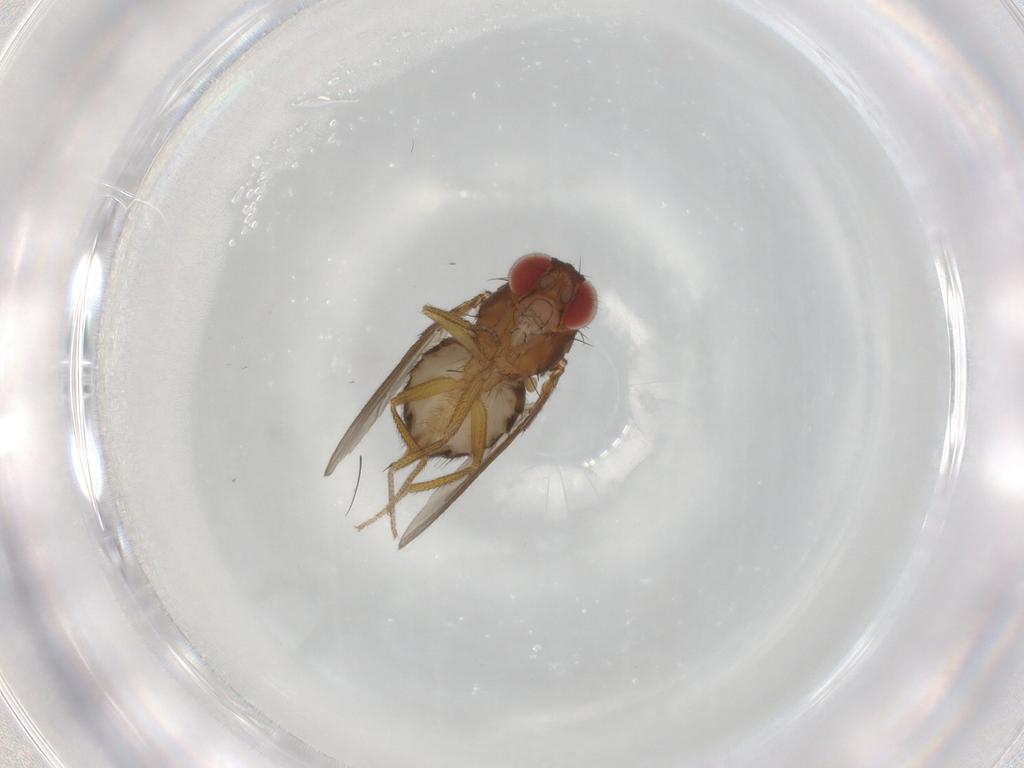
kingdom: Animalia
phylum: Arthropoda
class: Insecta
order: Diptera
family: Drosophilidae
